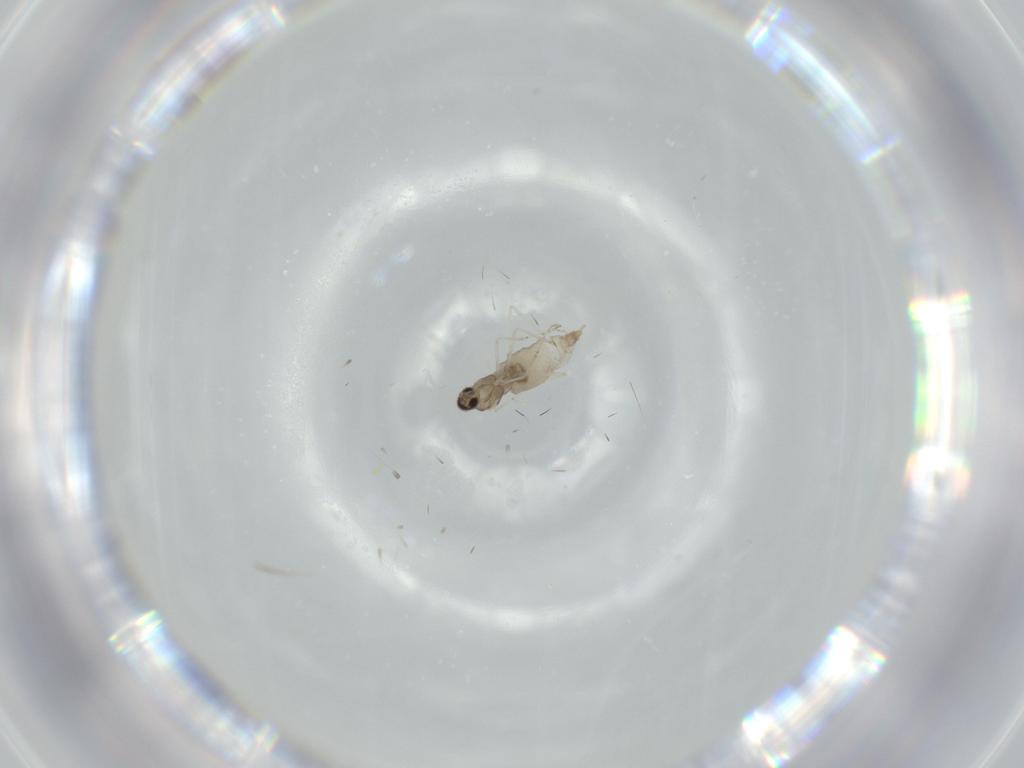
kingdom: Animalia
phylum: Arthropoda
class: Insecta
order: Diptera
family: Cecidomyiidae
